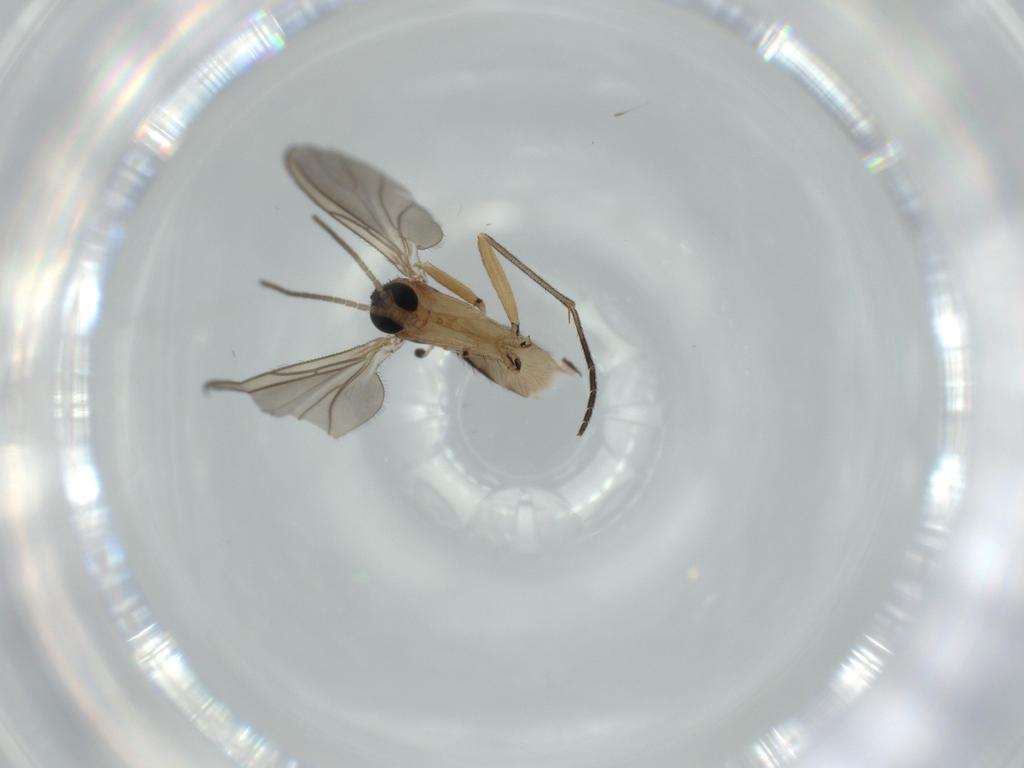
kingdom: Animalia
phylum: Arthropoda
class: Insecta
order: Diptera
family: Sciaridae
